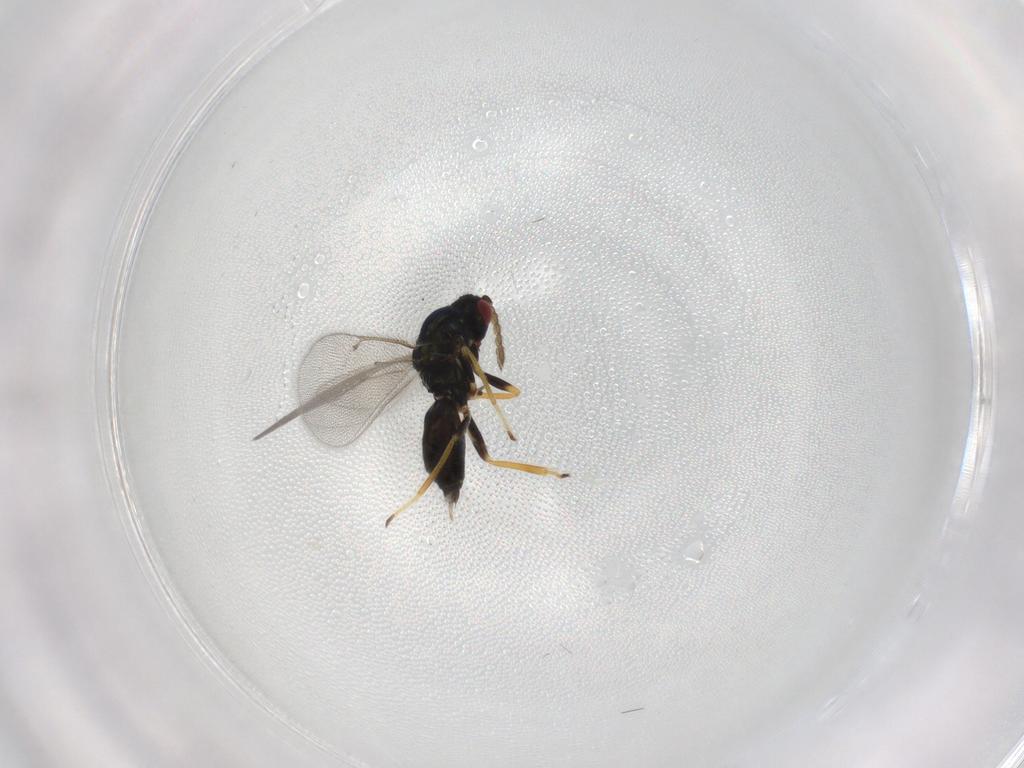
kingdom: Animalia
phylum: Arthropoda
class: Insecta
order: Hymenoptera
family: Eulophidae
